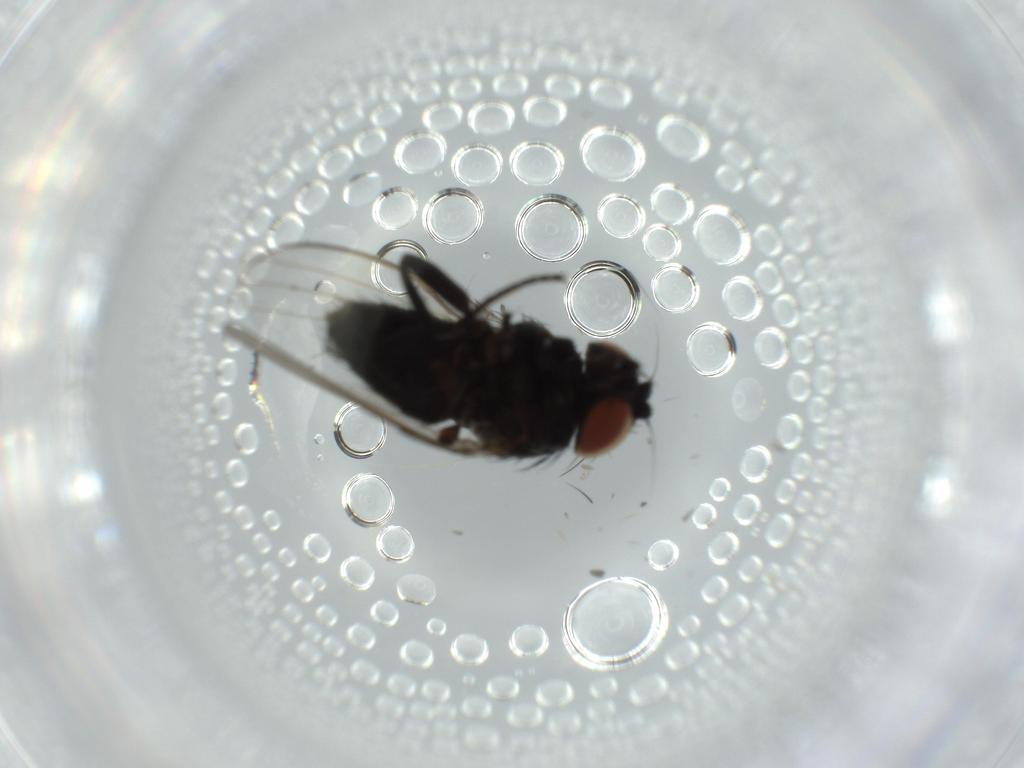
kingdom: Animalia
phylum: Arthropoda
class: Insecta
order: Diptera
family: Milichiidae
